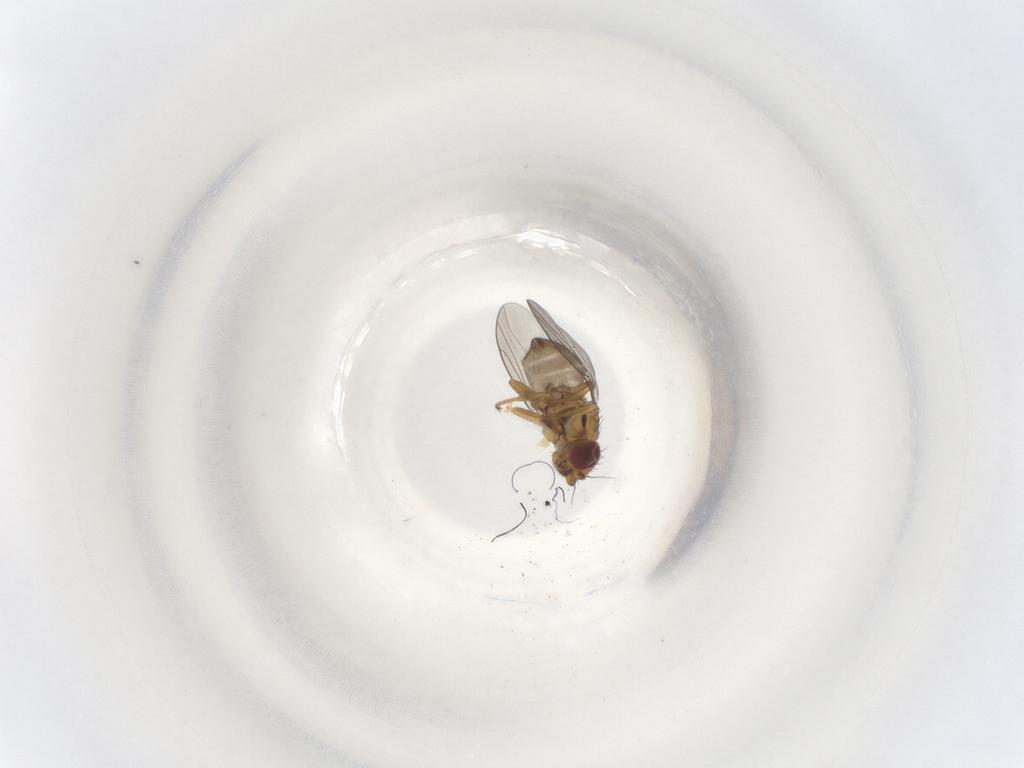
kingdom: Animalia
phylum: Arthropoda
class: Insecta
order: Diptera
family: Chloropidae
